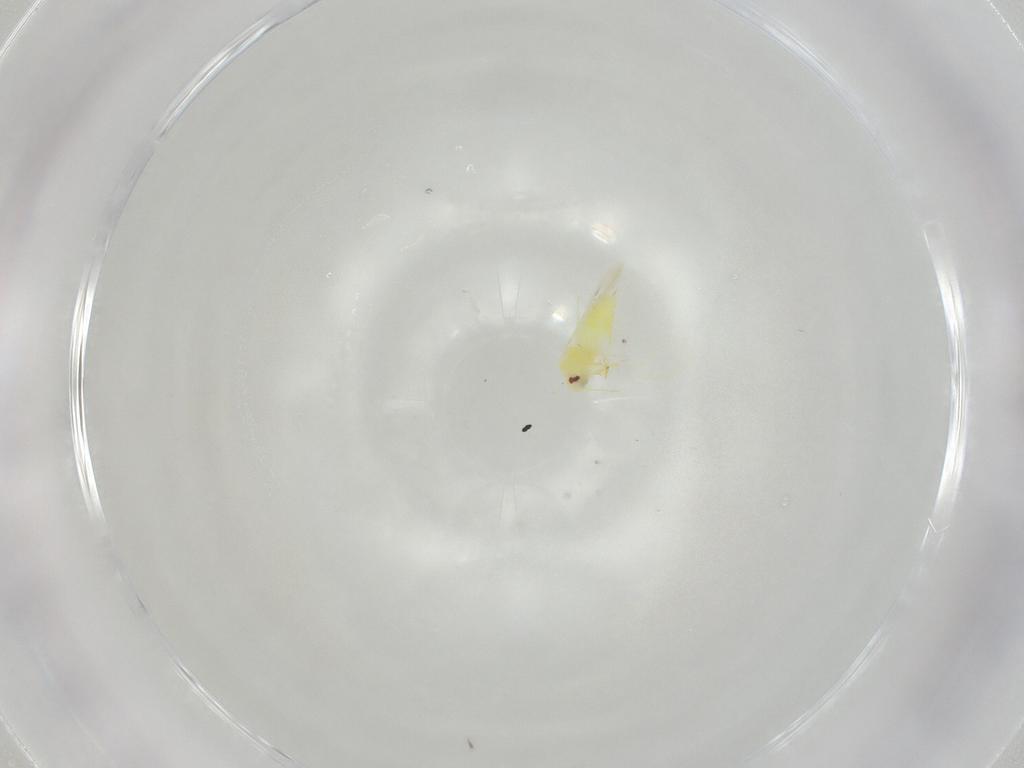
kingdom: Animalia
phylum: Arthropoda
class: Insecta
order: Hemiptera
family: Aleyrodidae
